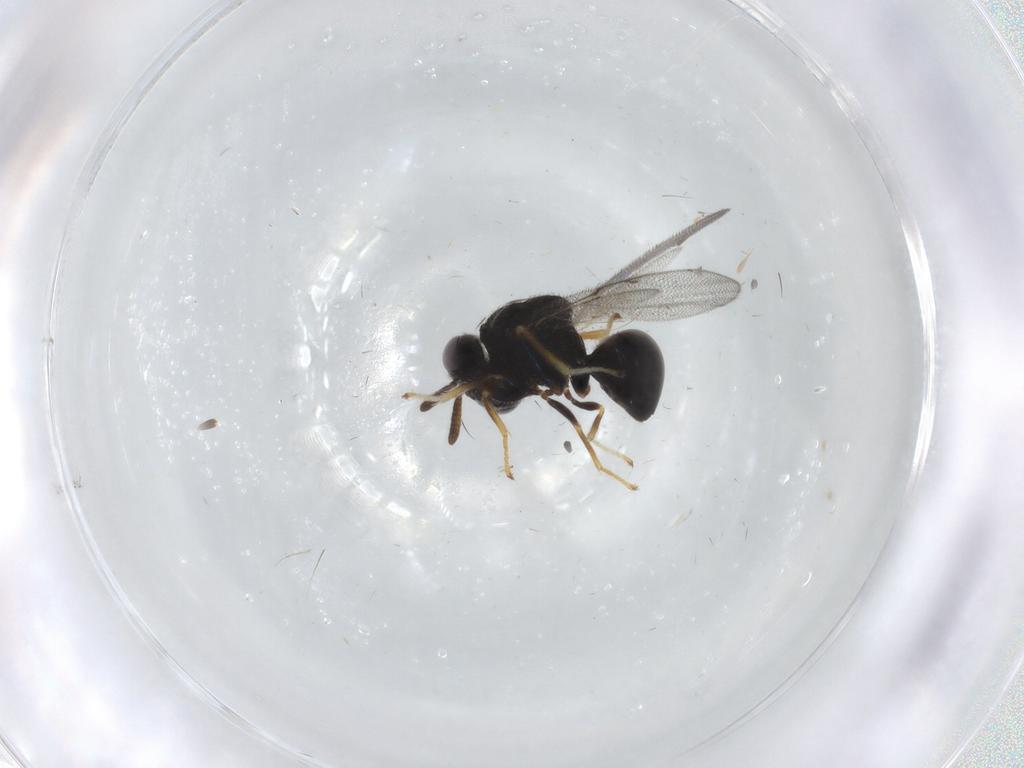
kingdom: Animalia
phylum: Arthropoda
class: Insecta
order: Hymenoptera
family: Perilampidae
